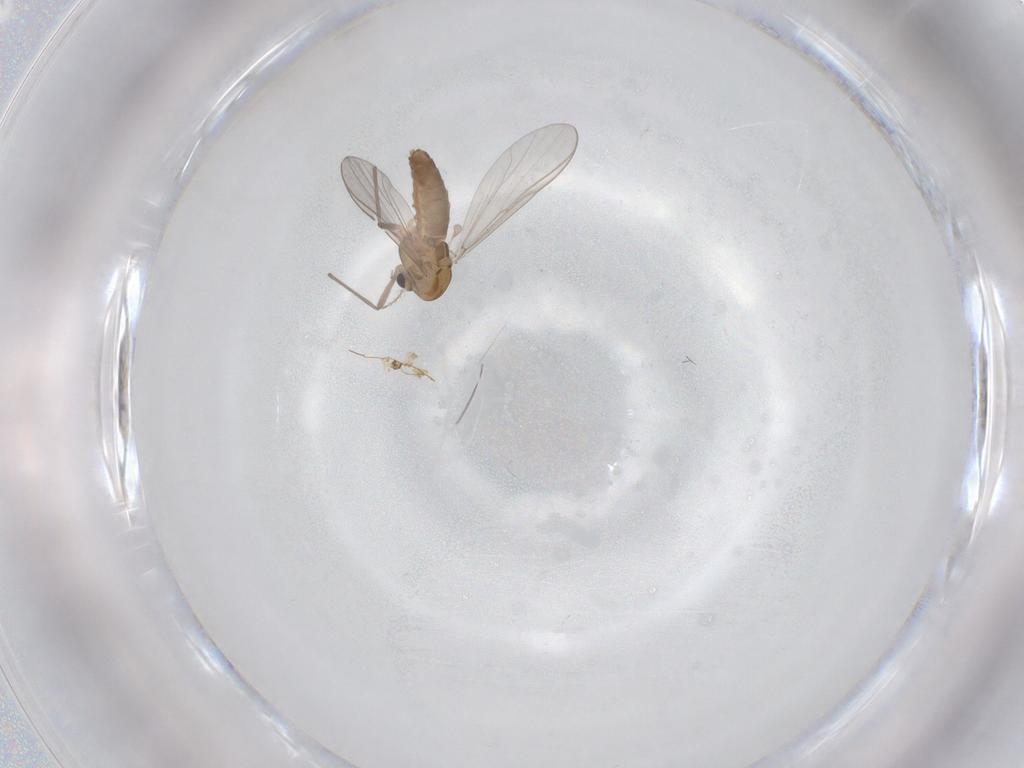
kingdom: Animalia
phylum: Arthropoda
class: Insecta
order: Diptera
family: Chironomidae
